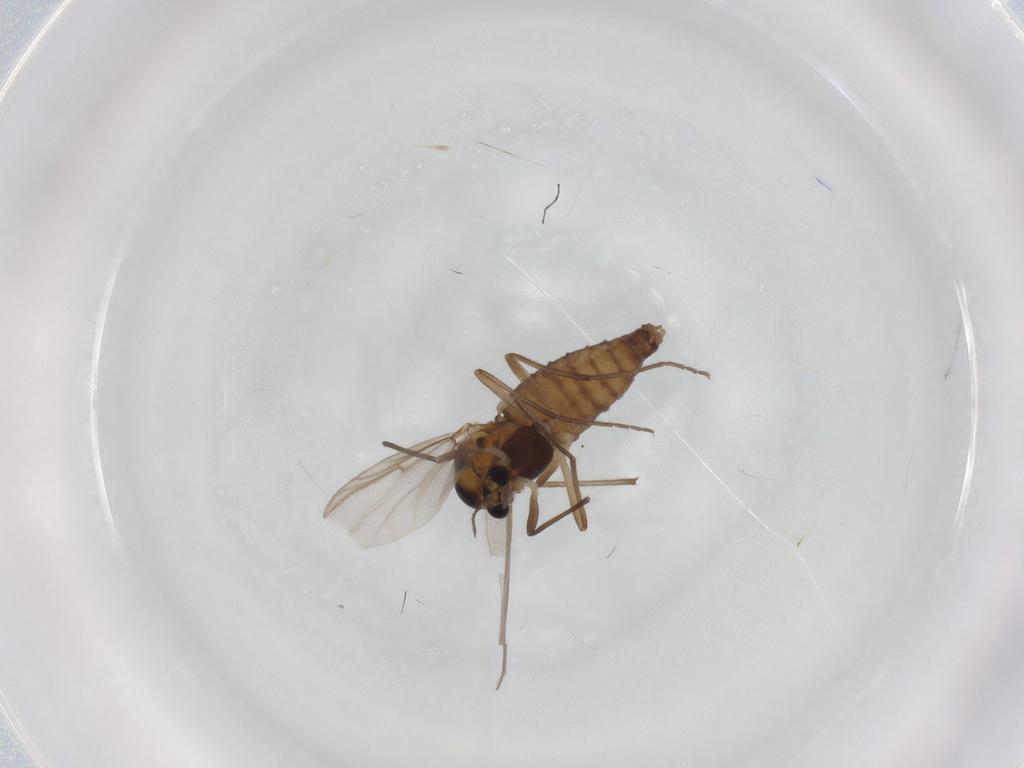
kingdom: Animalia
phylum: Arthropoda
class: Insecta
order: Diptera
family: Chironomidae
